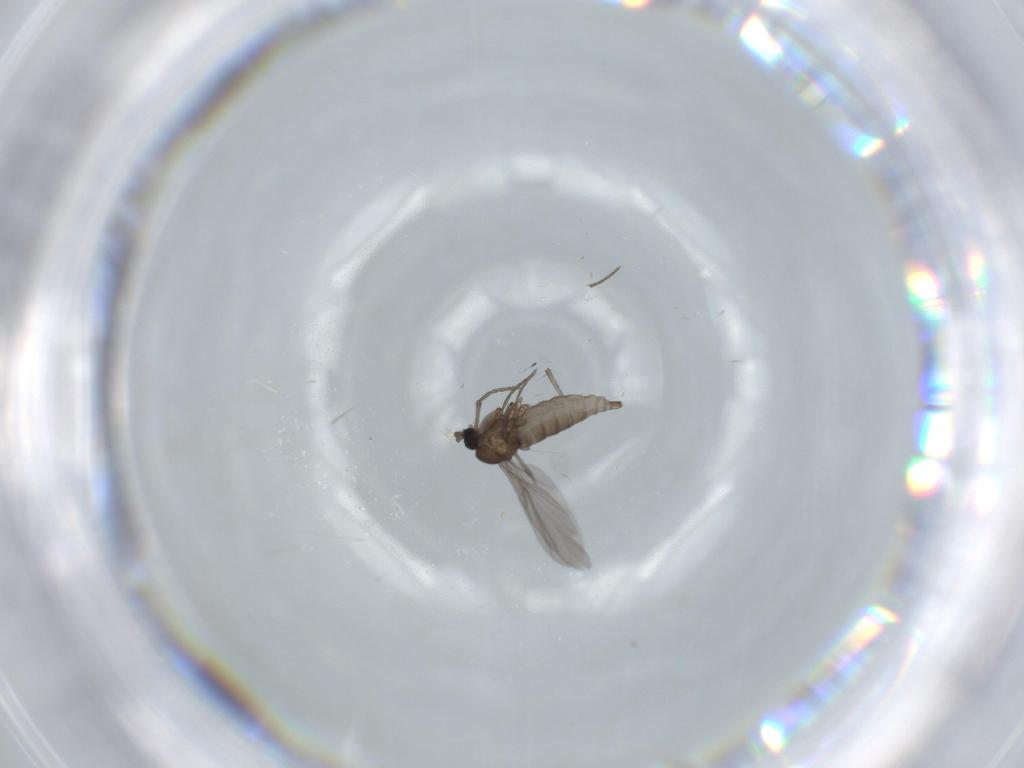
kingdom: Animalia
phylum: Arthropoda
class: Insecta
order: Diptera
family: Sciaridae
